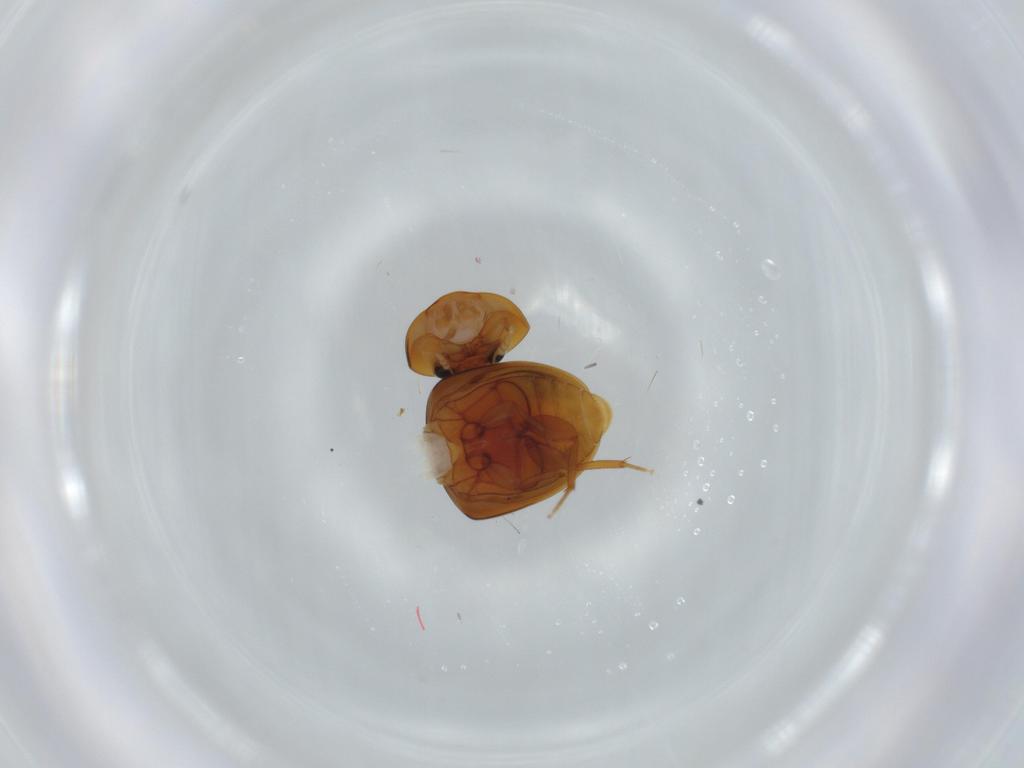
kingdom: Animalia
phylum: Arthropoda
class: Insecta
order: Coleoptera
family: Phalacridae
